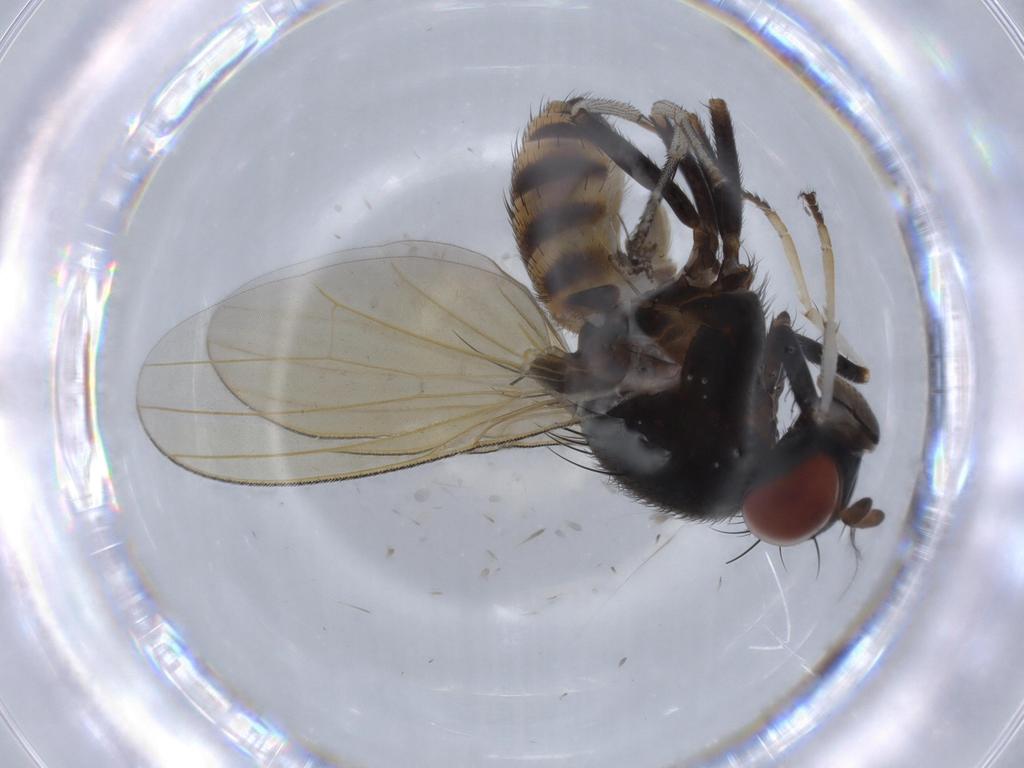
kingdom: Animalia
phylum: Arthropoda
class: Insecta
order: Diptera
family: Sciaridae
